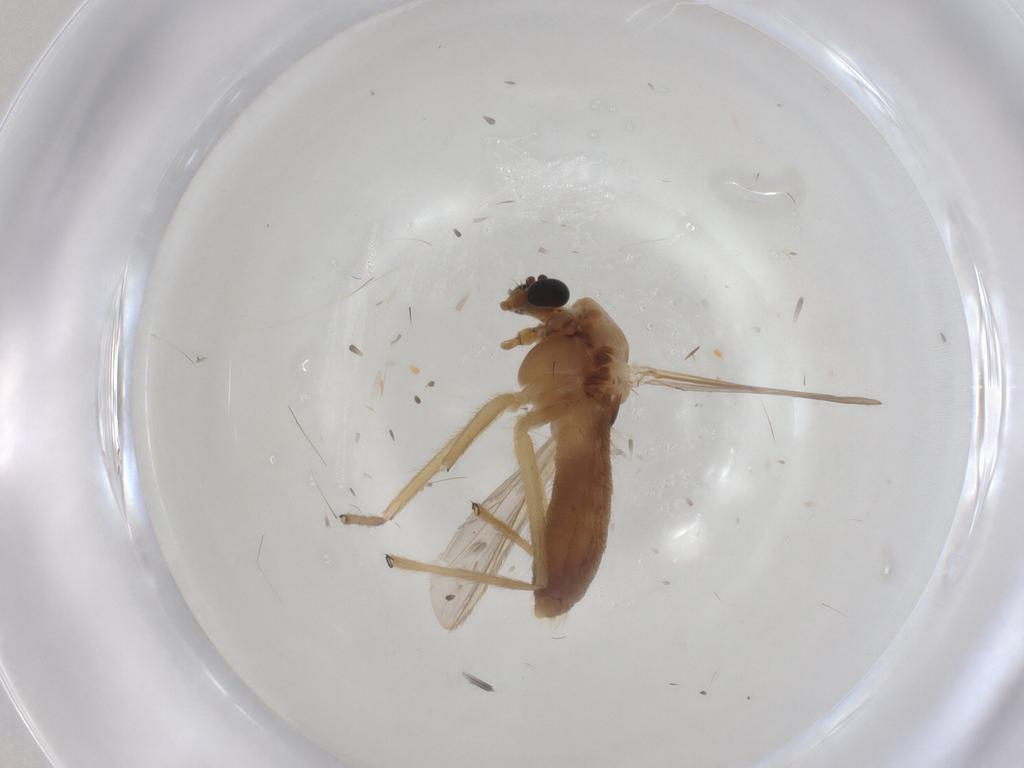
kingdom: Animalia
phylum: Arthropoda
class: Insecta
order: Diptera
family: Chironomidae
